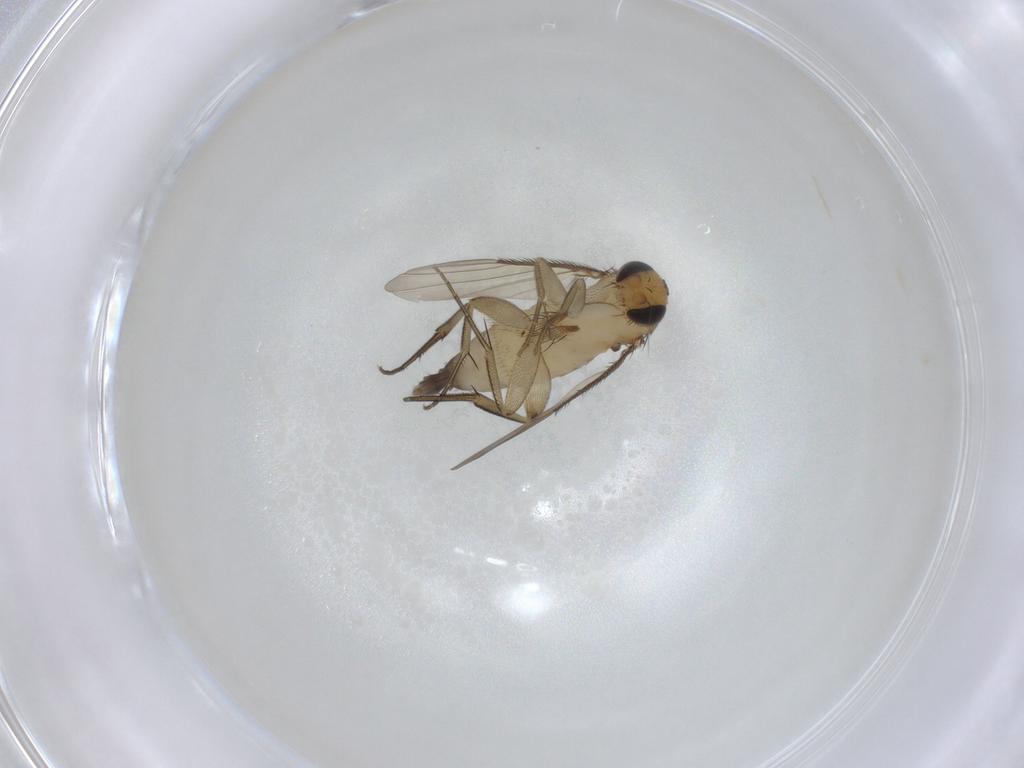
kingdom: Animalia
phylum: Arthropoda
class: Insecta
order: Diptera
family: Phoridae
